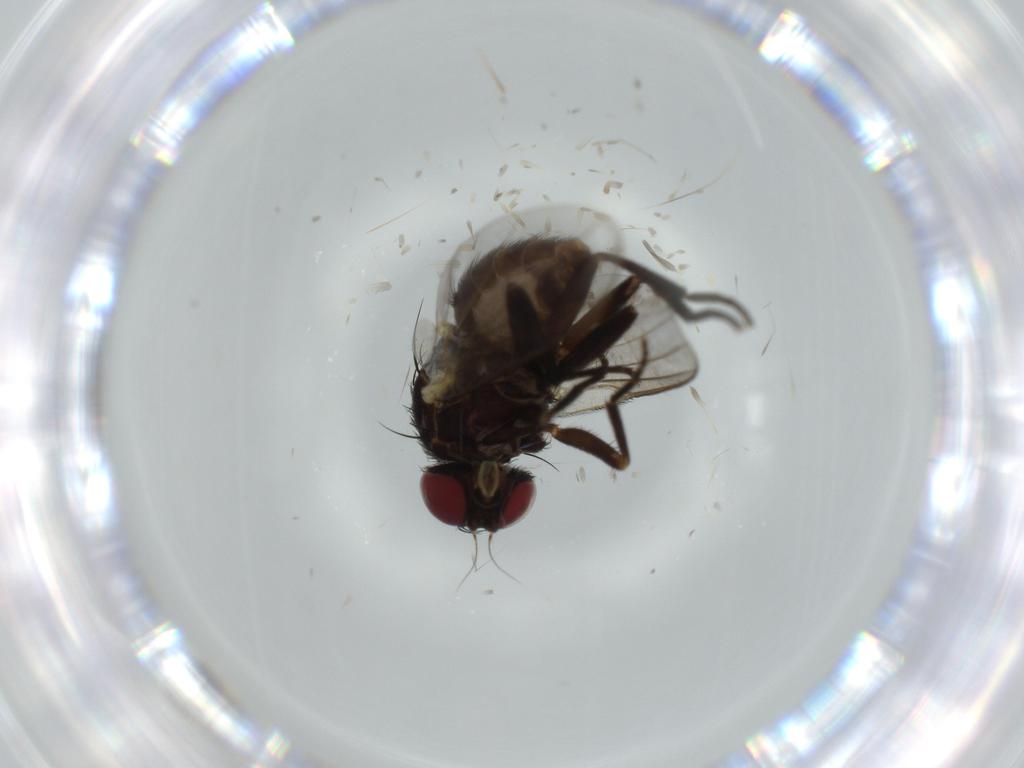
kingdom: Animalia
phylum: Arthropoda
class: Insecta
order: Diptera
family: Agromyzidae
